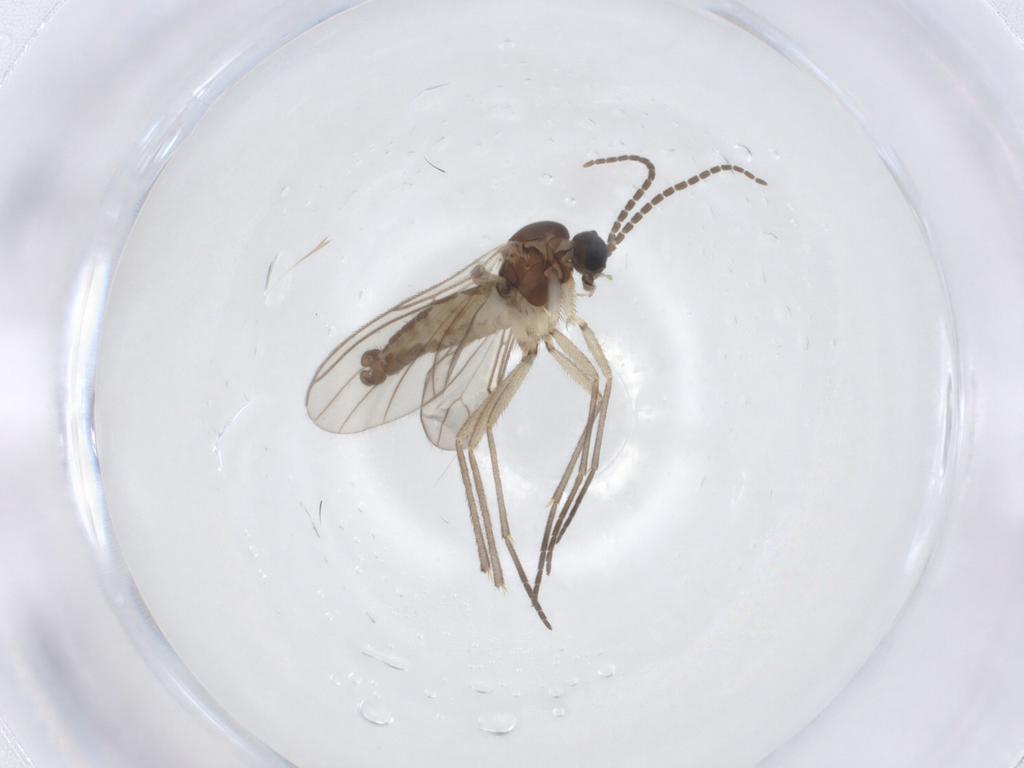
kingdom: Animalia
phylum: Arthropoda
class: Insecta
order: Diptera
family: Sciaridae
